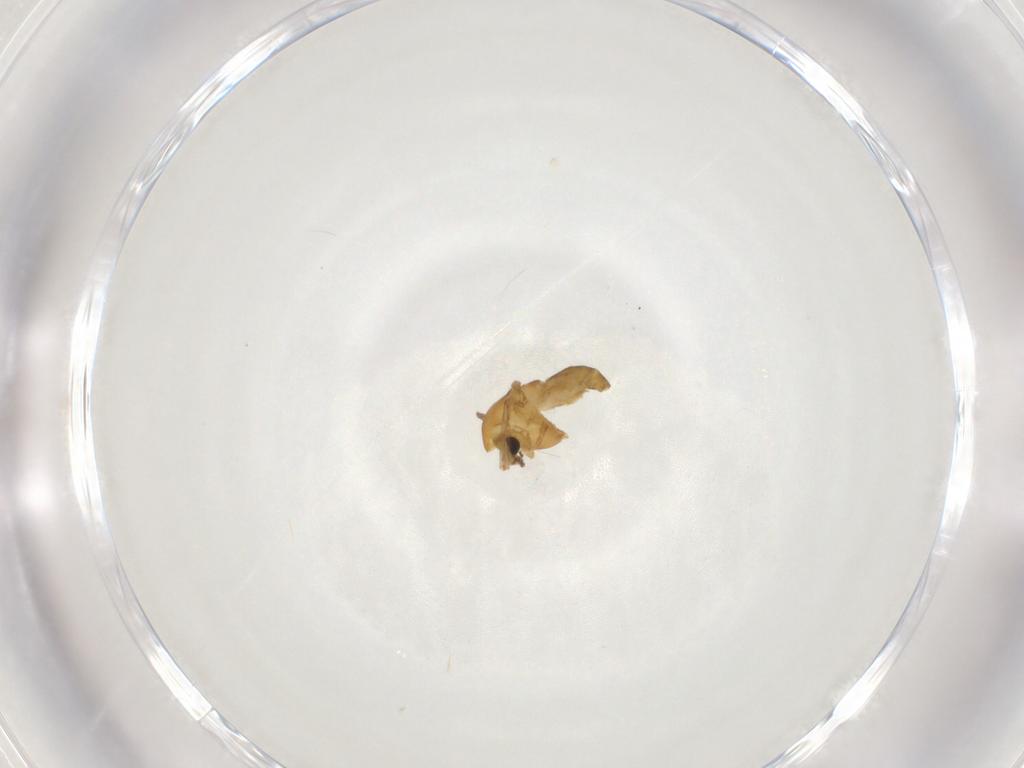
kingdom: Animalia
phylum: Arthropoda
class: Insecta
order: Diptera
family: Chironomidae
